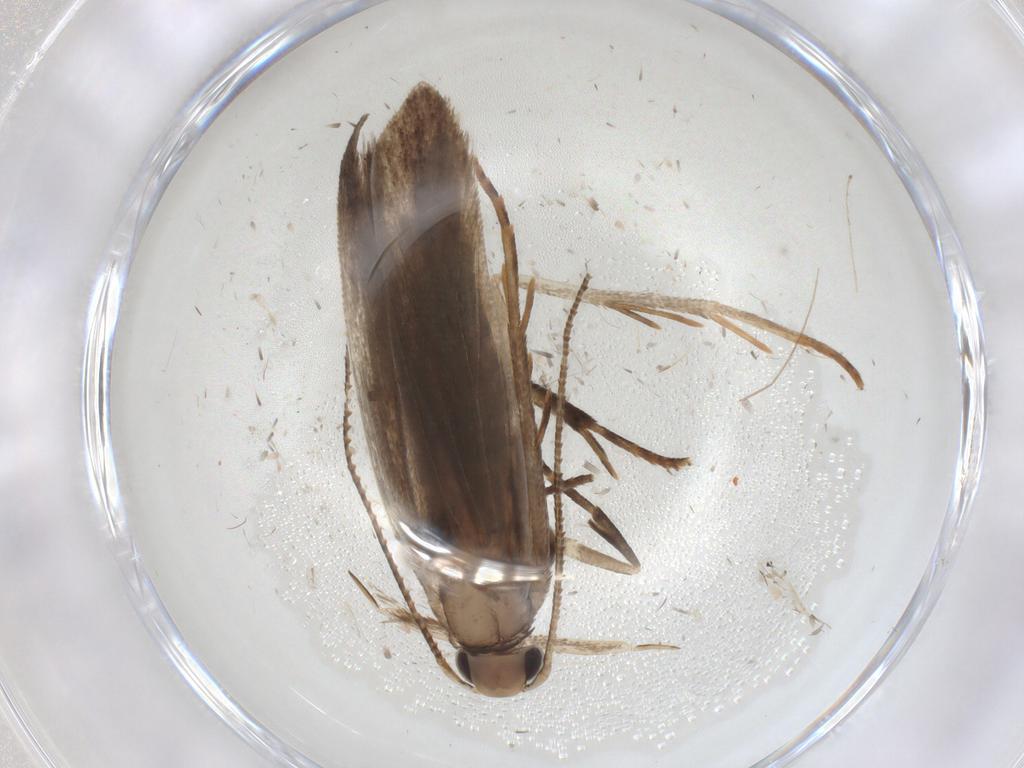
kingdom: Animalia
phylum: Arthropoda
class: Insecta
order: Lepidoptera
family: Gelechiidae
